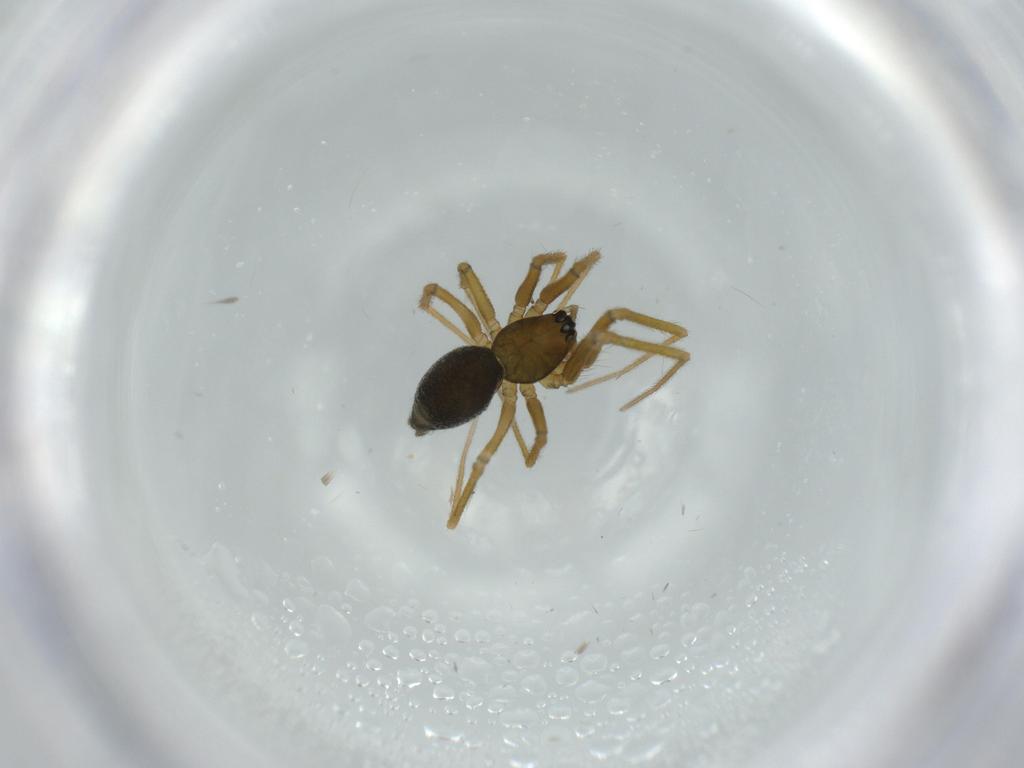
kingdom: Animalia
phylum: Arthropoda
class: Arachnida
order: Araneae
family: Linyphiidae
